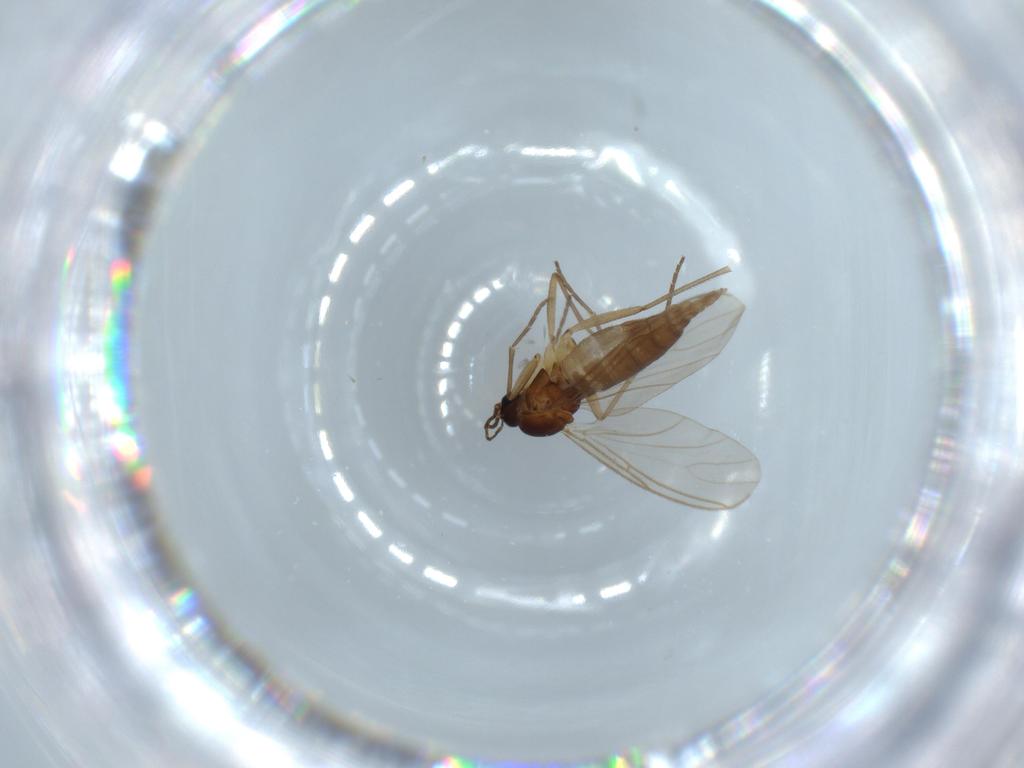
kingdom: Animalia
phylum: Arthropoda
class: Insecta
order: Diptera
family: Sciaridae
